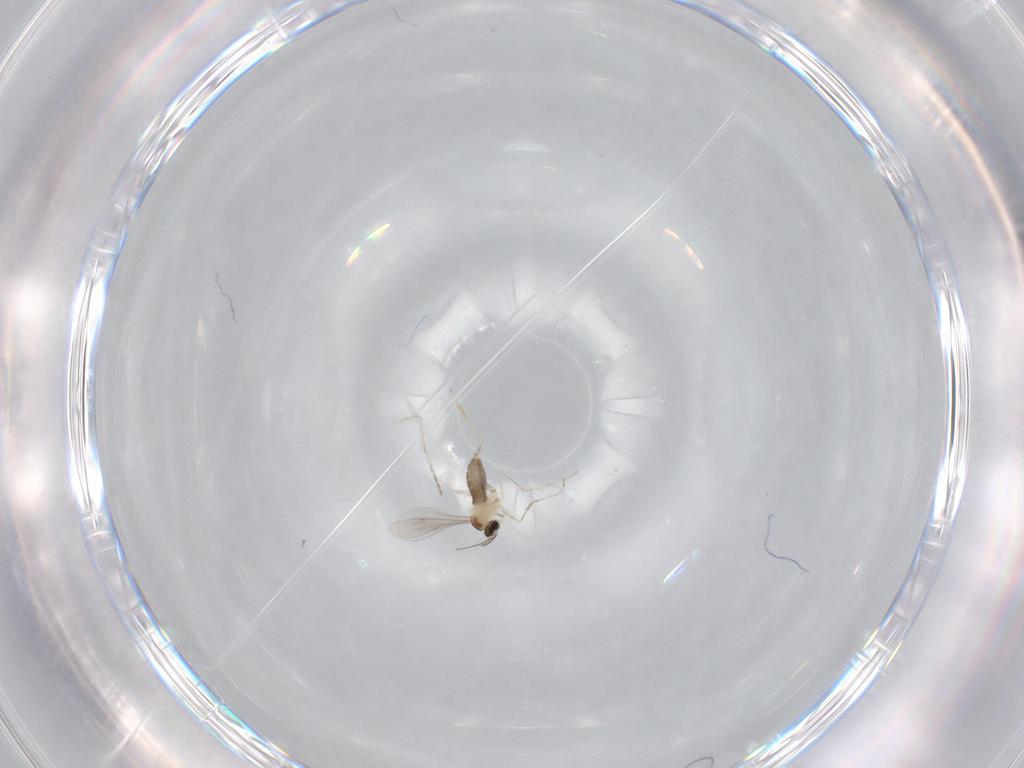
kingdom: Animalia
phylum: Arthropoda
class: Insecta
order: Diptera
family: Cecidomyiidae
